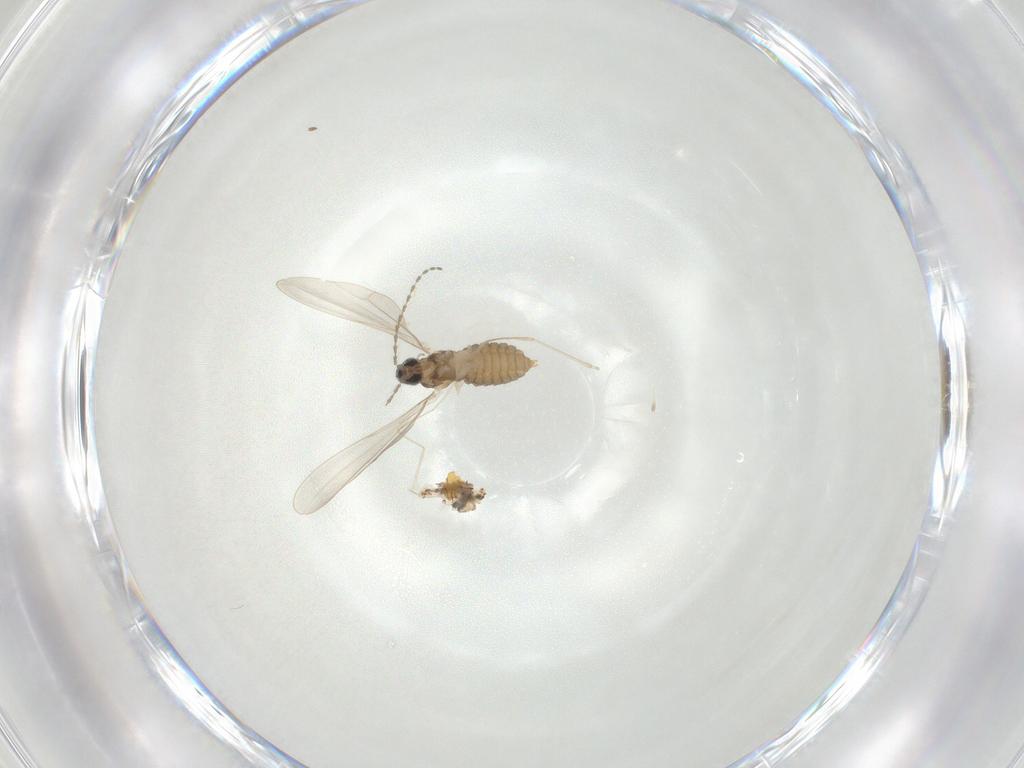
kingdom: Animalia
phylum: Arthropoda
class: Insecta
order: Diptera
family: Cecidomyiidae
